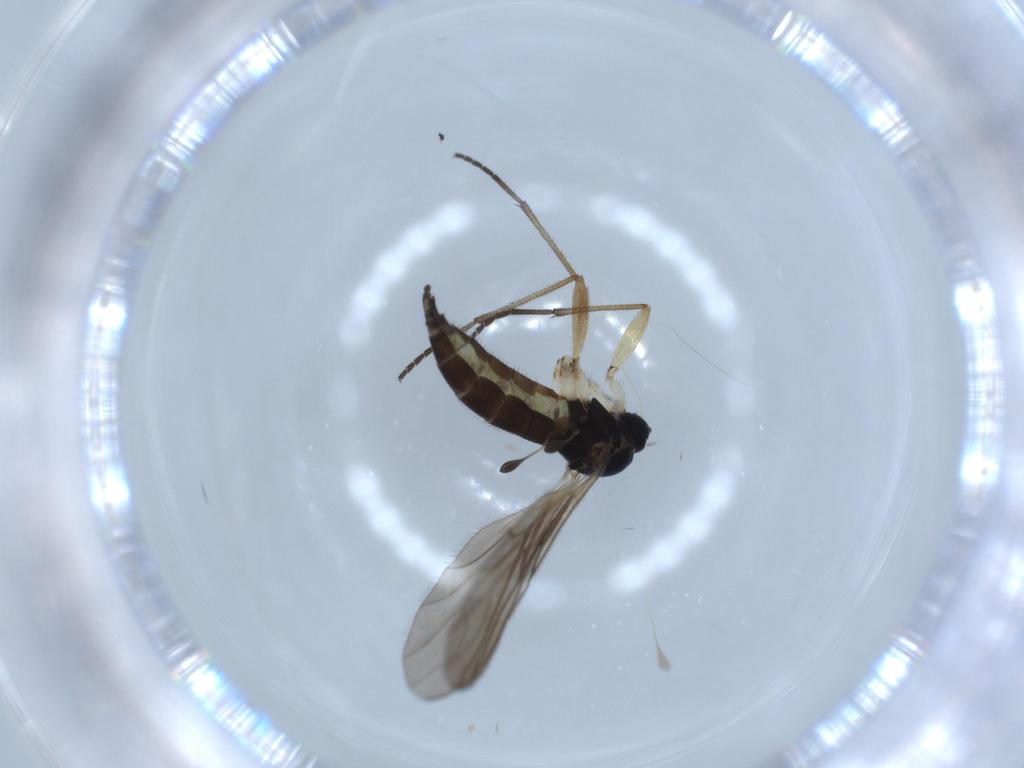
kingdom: Animalia
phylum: Arthropoda
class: Insecta
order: Diptera
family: Sciaridae
